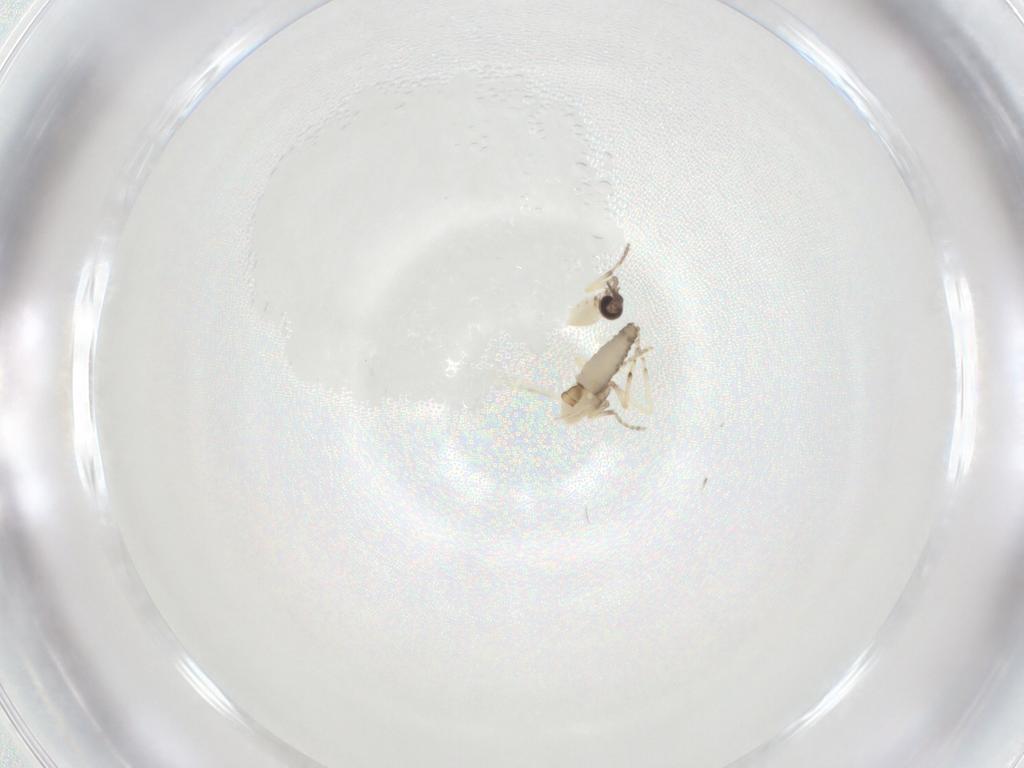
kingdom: Animalia
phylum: Arthropoda
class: Insecta
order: Diptera
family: Ceratopogonidae
